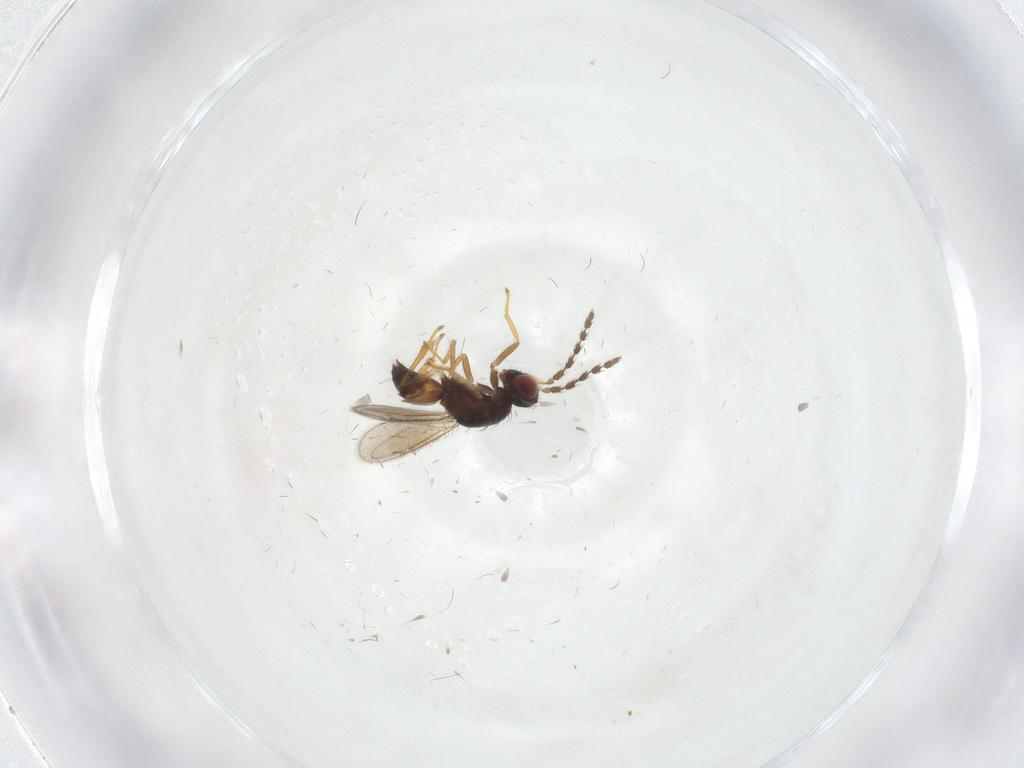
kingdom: Animalia
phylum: Arthropoda
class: Insecta
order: Hymenoptera
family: Eulophidae
